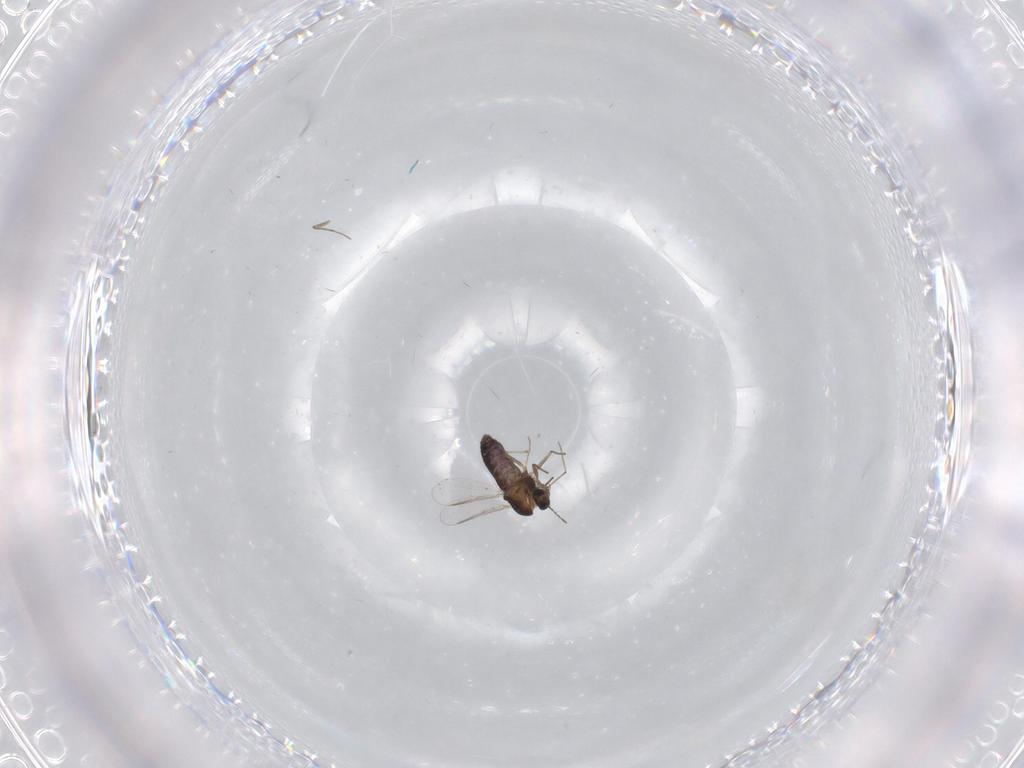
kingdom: Animalia
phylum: Arthropoda
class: Insecta
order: Diptera
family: Chironomidae
